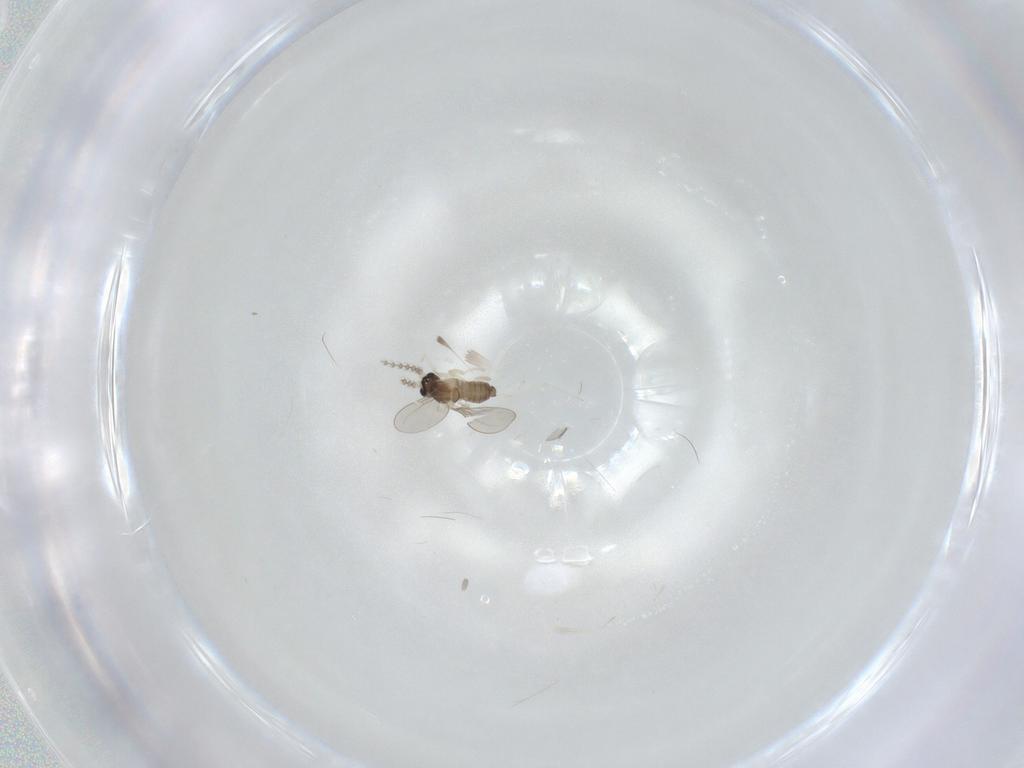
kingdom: Animalia
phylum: Arthropoda
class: Insecta
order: Diptera
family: Cecidomyiidae
